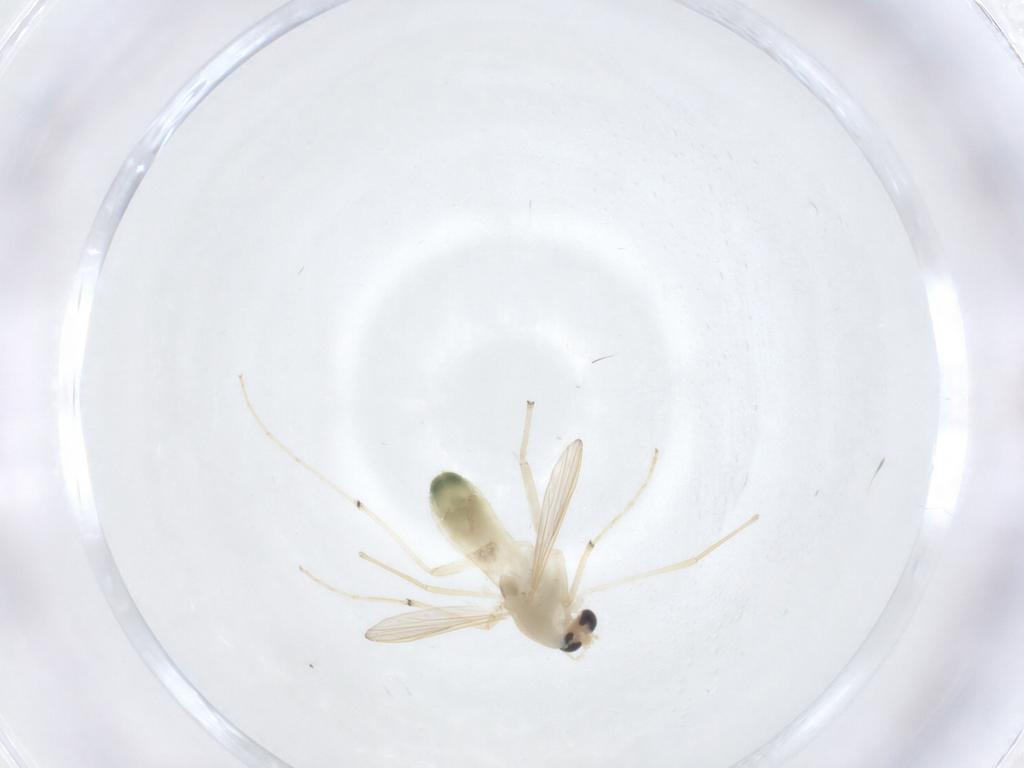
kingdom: Animalia
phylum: Arthropoda
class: Insecta
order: Diptera
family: Chironomidae
